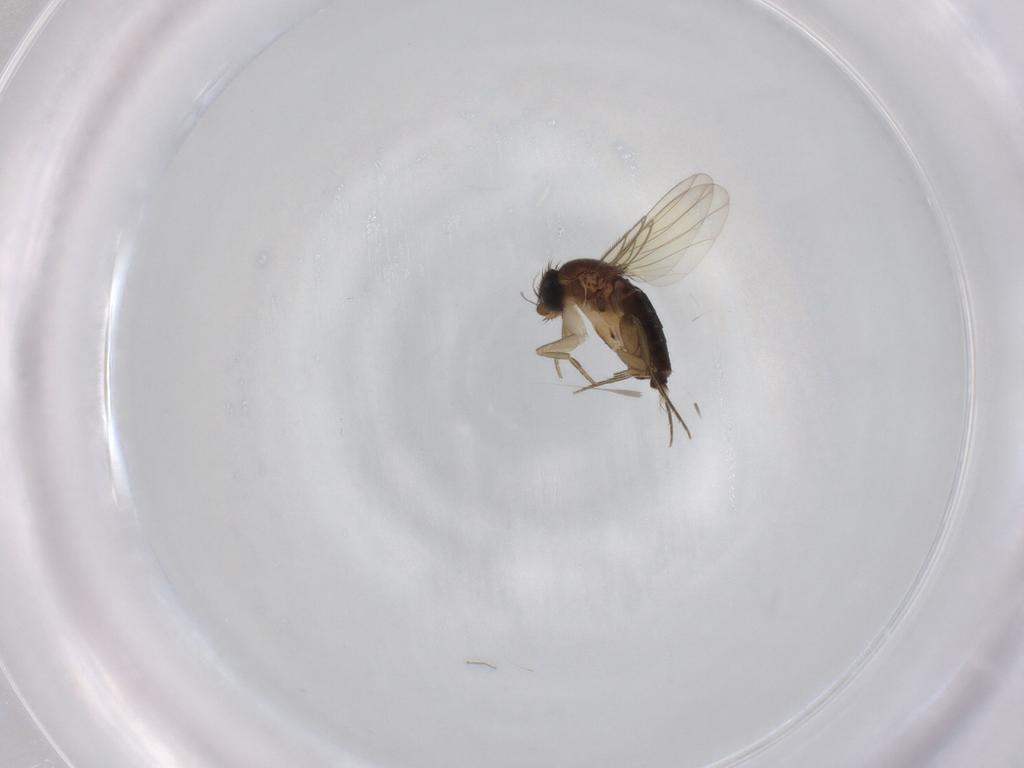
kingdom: Animalia
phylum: Arthropoda
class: Insecta
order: Diptera
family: Phoridae
